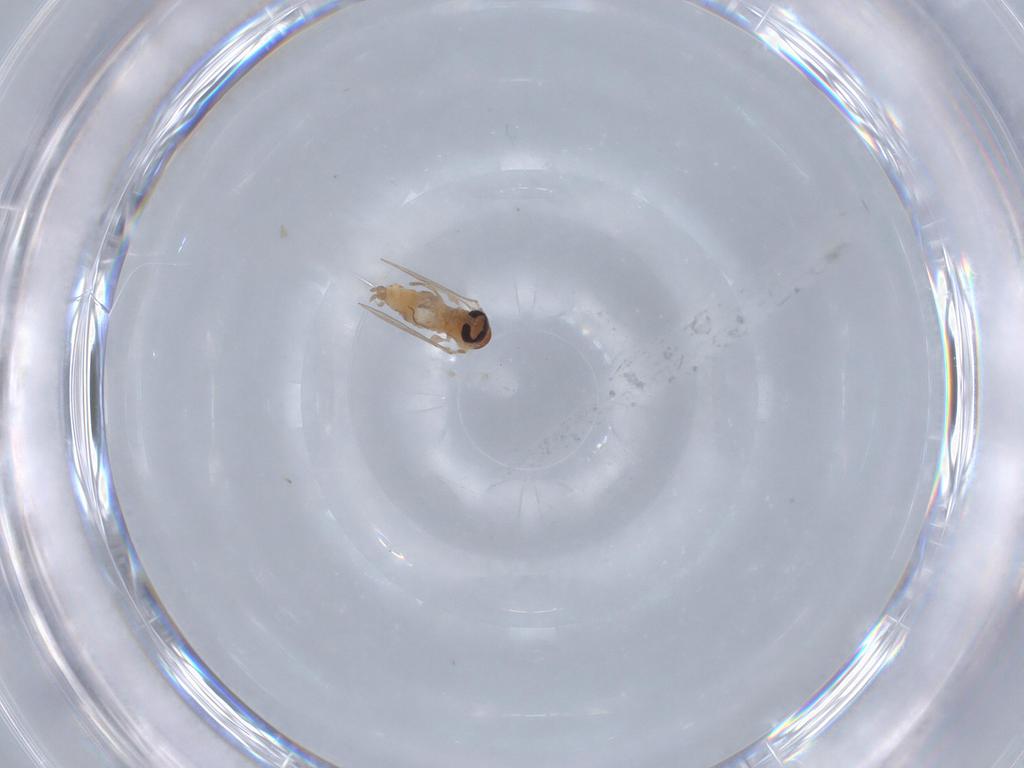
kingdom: Animalia
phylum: Arthropoda
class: Insecta
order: Diptera
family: Psychodidae
